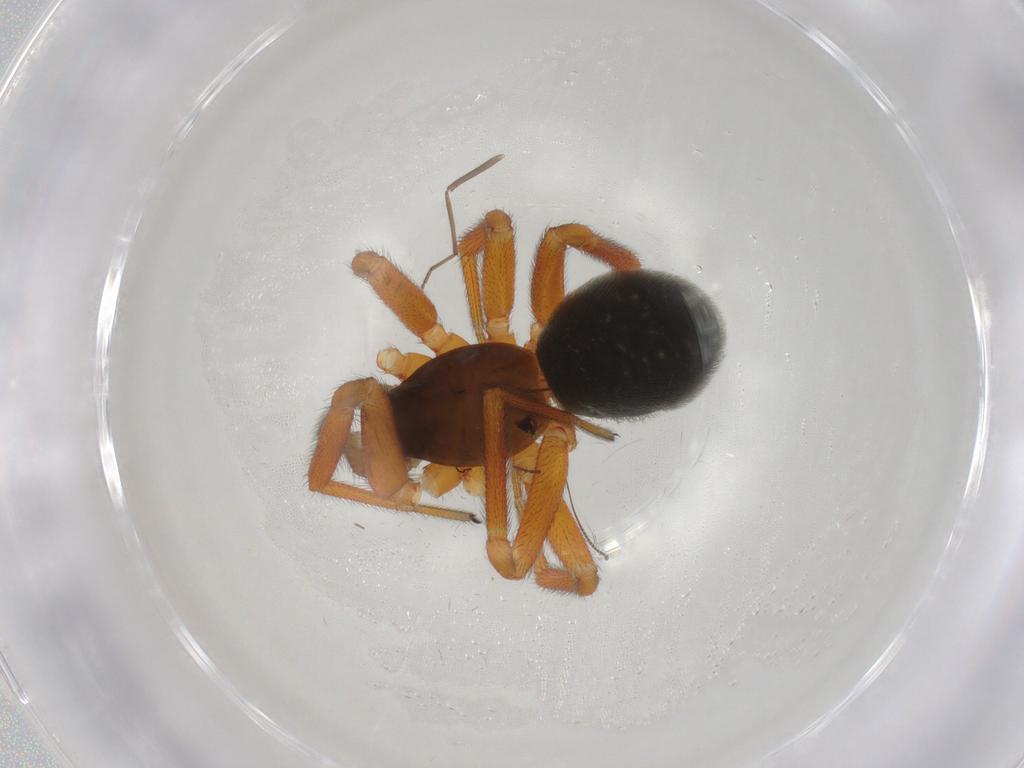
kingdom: Animalia
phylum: Arthropoda
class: Arachnida
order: Araneae
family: Linyphiidae
